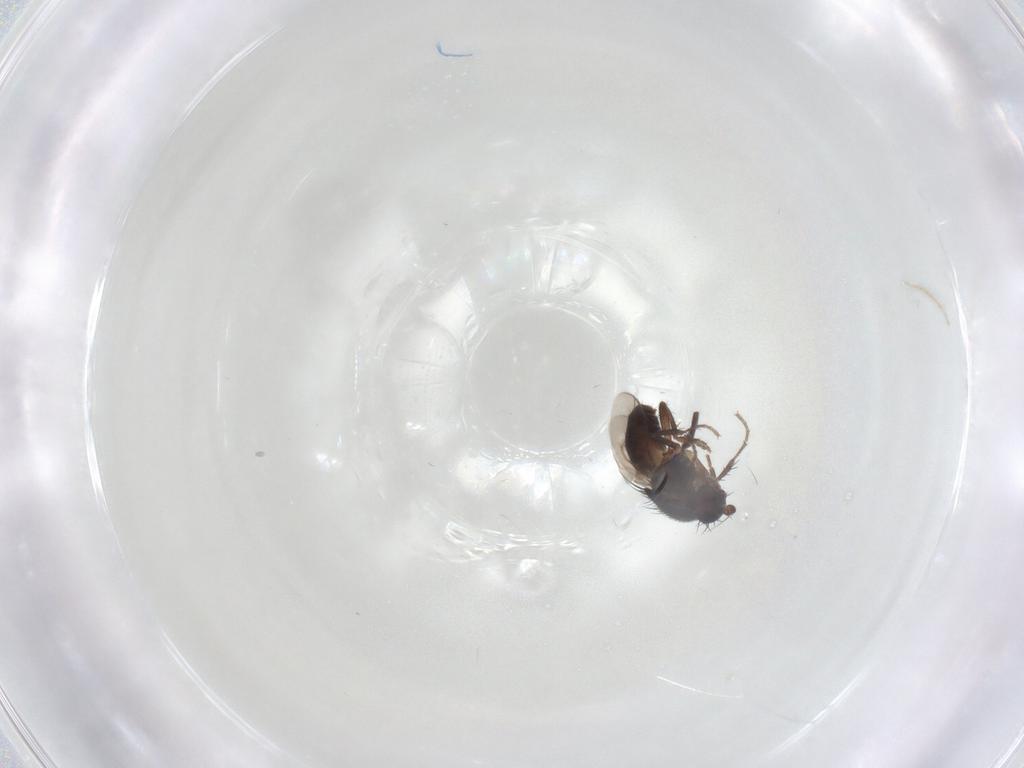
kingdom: Animalia
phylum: Arthropoda
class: Insecta
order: Diptera
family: Sphaeroceridae
